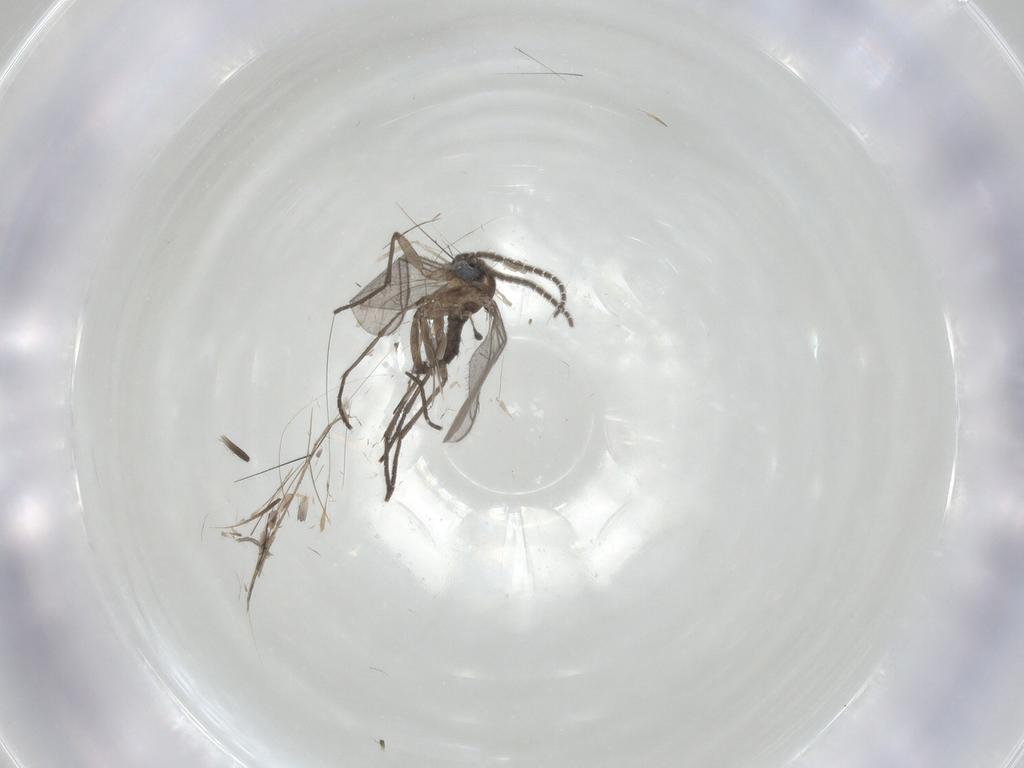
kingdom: Animalia
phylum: Arthropoda
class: Insecta
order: Diptera
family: Sciaridae
